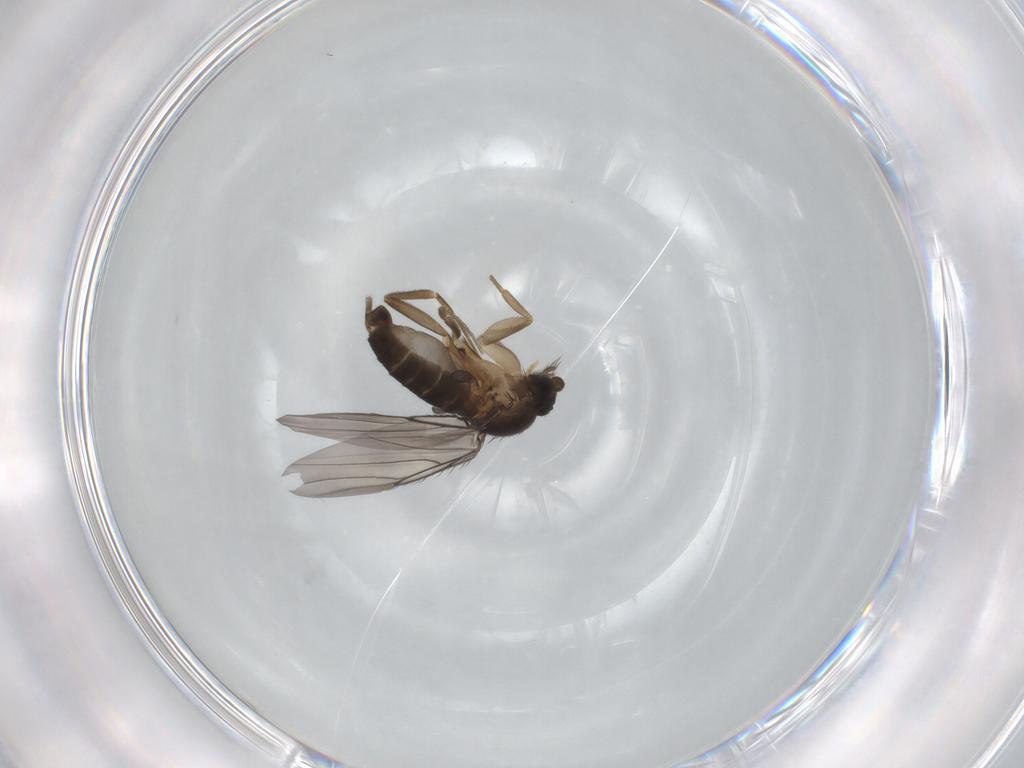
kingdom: Animalia
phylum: Arthropoda
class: Insecta
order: Diptera
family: Phoridae
